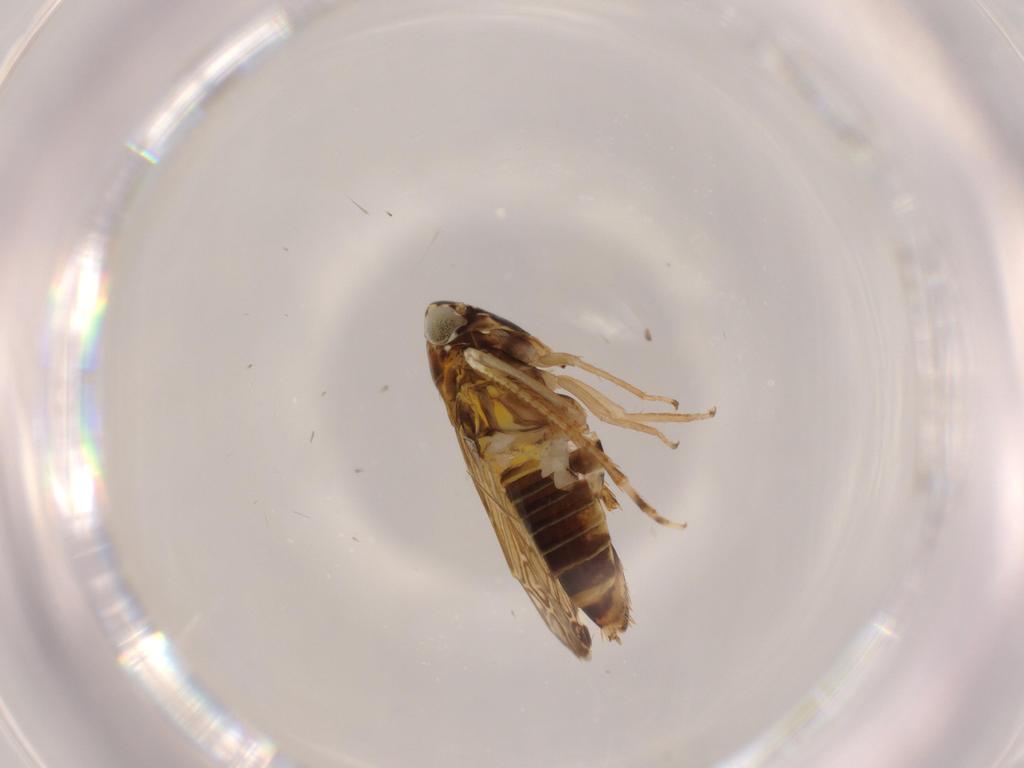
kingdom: Animalia
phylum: Arthropoda
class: Insecta
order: Hemiptera
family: Cicadellidae
